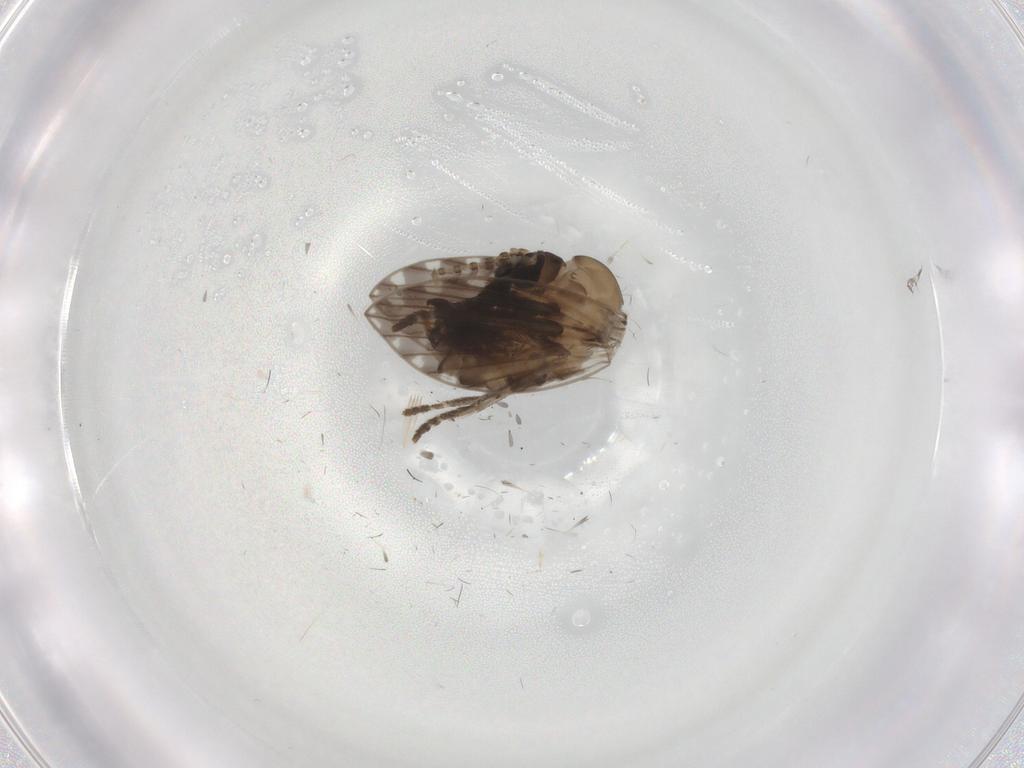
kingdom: Animalia
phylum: Arthropoda
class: Insecta
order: Diptera
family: Psychodidae
